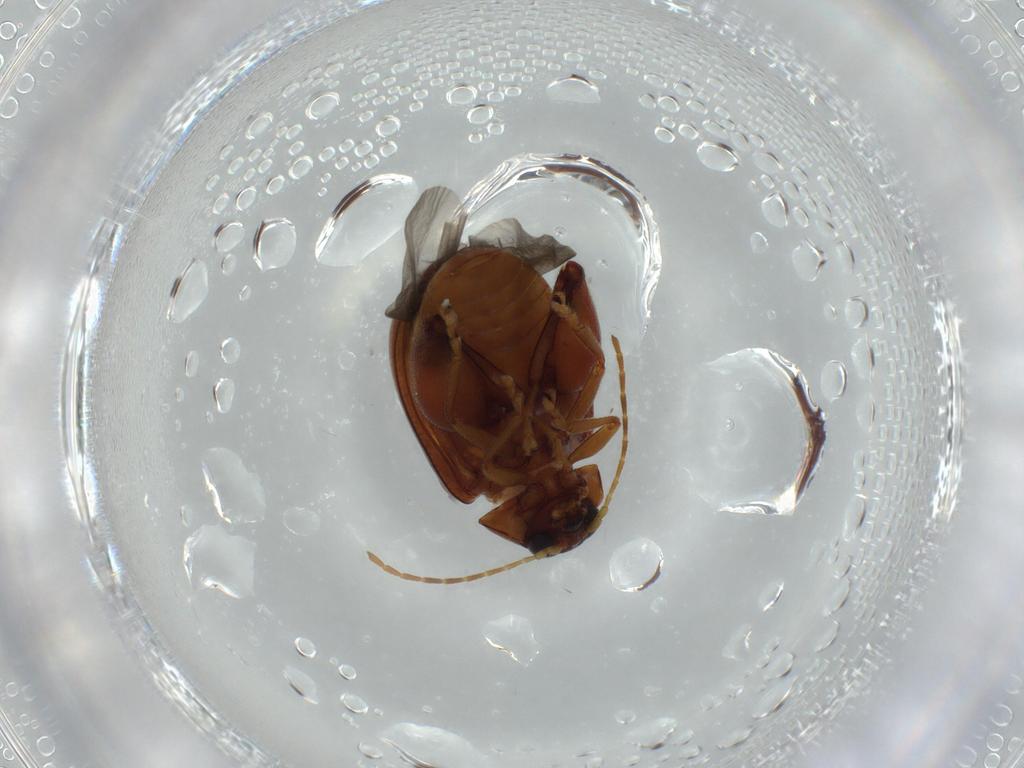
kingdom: Animalia
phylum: Arthropoda
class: Insecta
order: Coleoptera
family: Chrysomelidae
